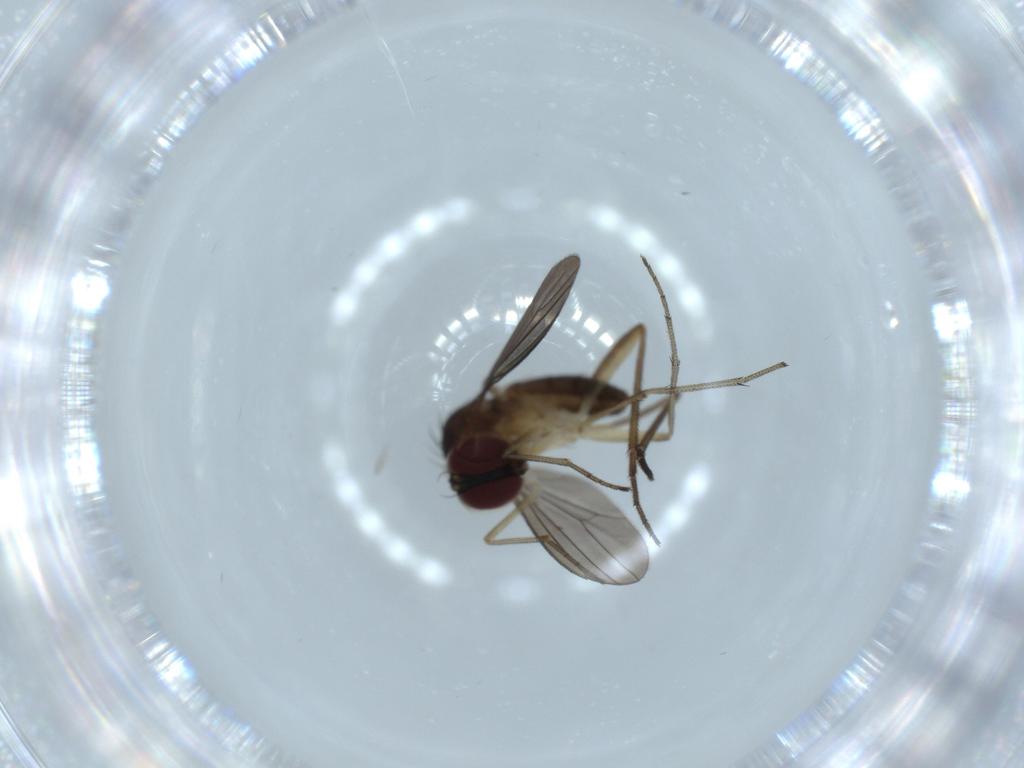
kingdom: Animalia
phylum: Arthropoda
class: Insecta
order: Diptera
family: Dolichopodidae
